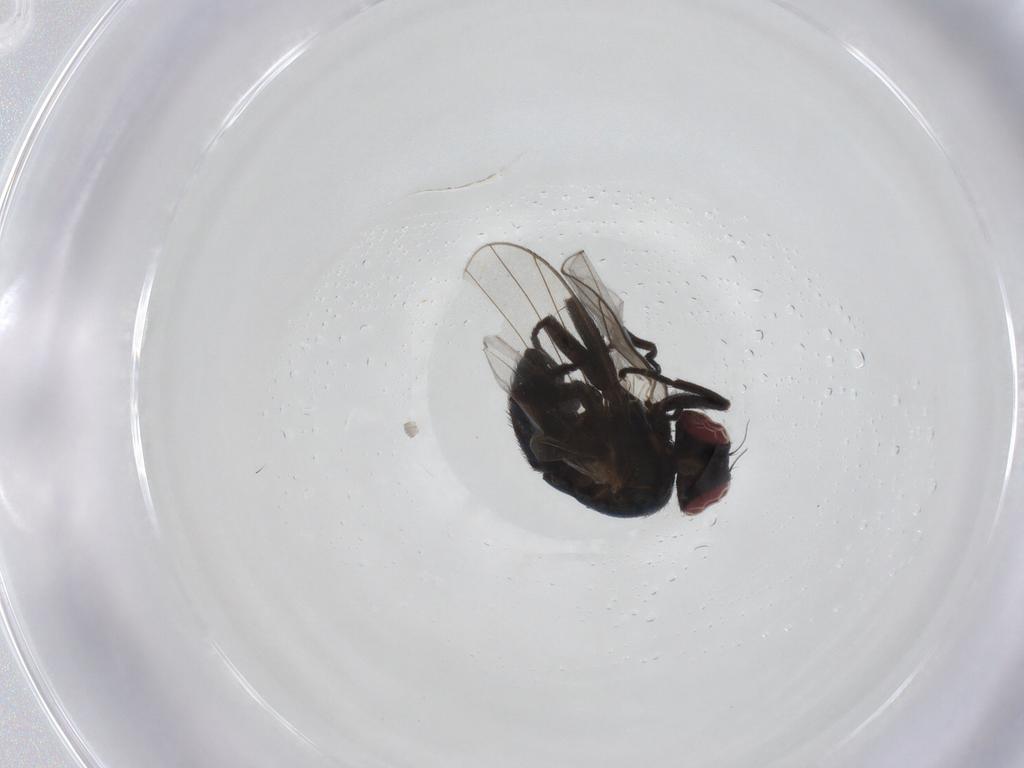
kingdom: Animalia
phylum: Arthropoda
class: Insecta
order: Diptera
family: Agromyzidae
